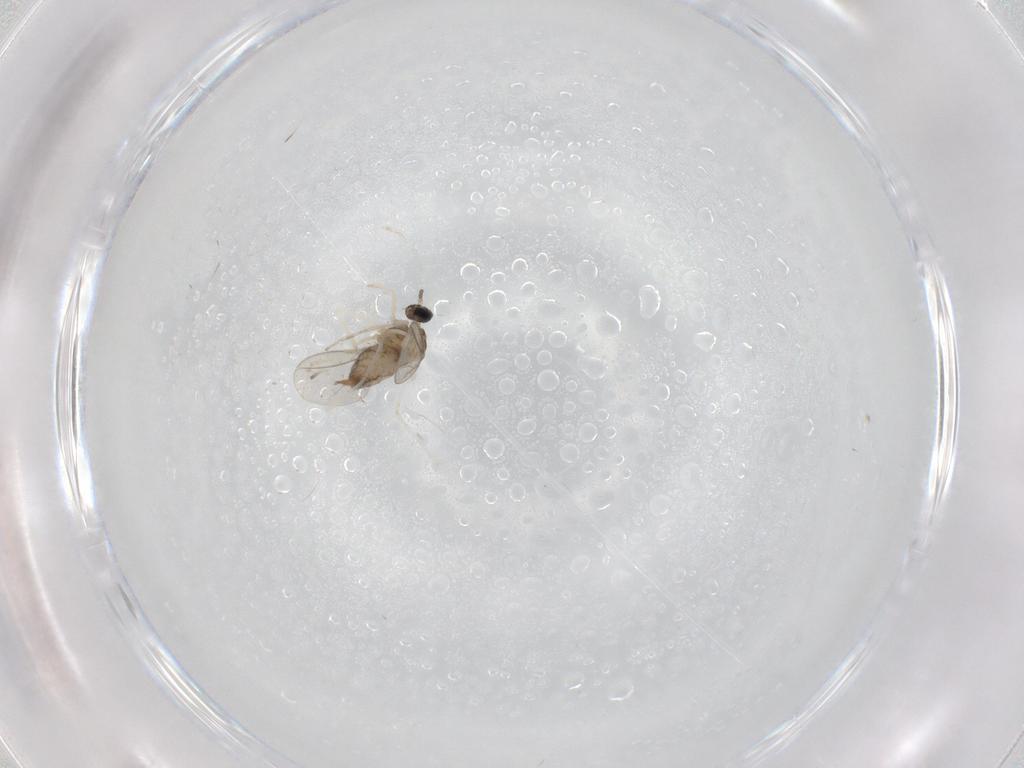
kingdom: Animalia
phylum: Arthropoda
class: Insecta
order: Diptera
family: Cecidomyiidae
